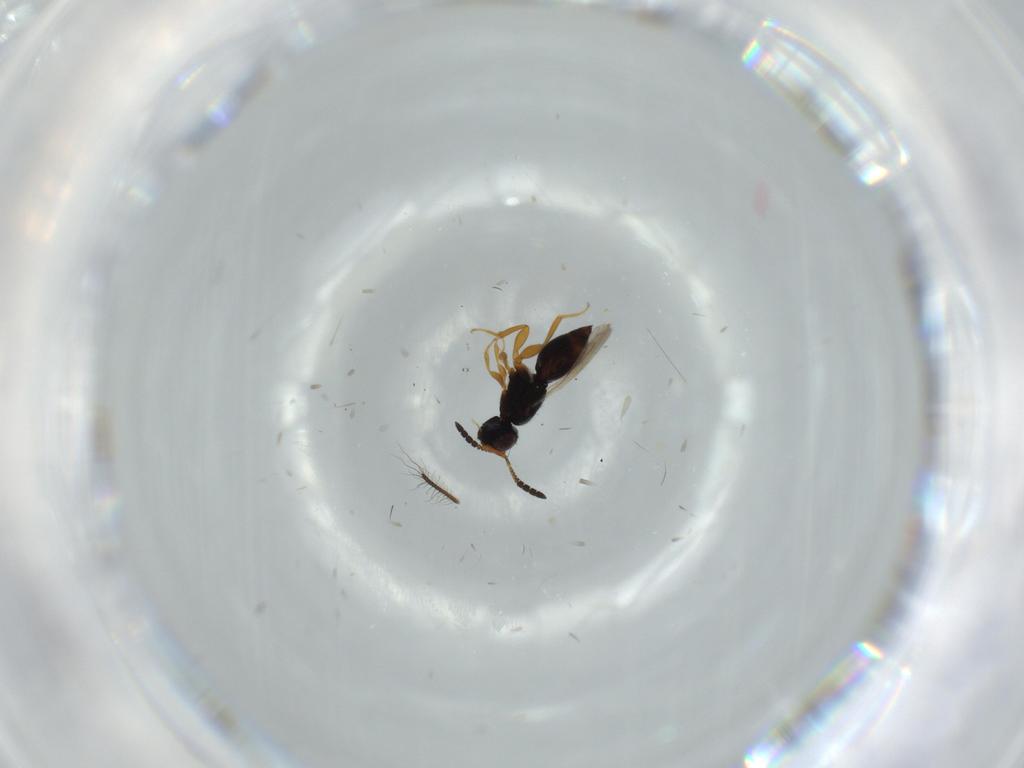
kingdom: Animalia
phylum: Arthropoda
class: Insecta
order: Hymenoptera
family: Ceraphronidae
